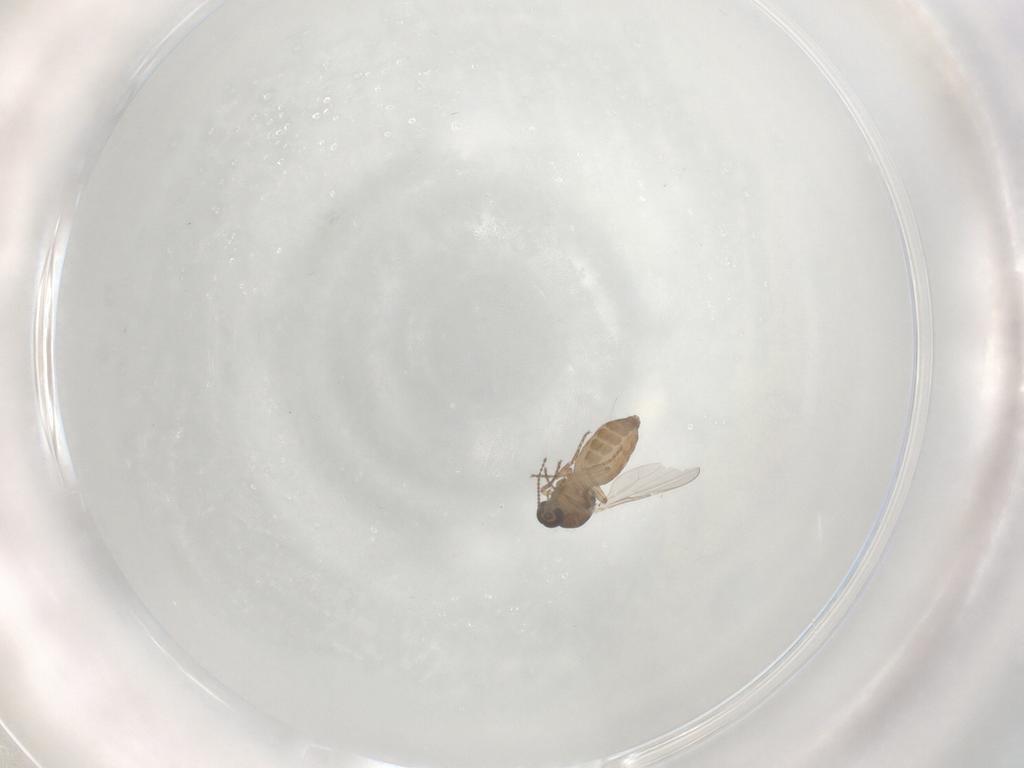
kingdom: Animalia
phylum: Arthropoda
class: Insecta
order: Diptera
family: Ceratopogonidae
